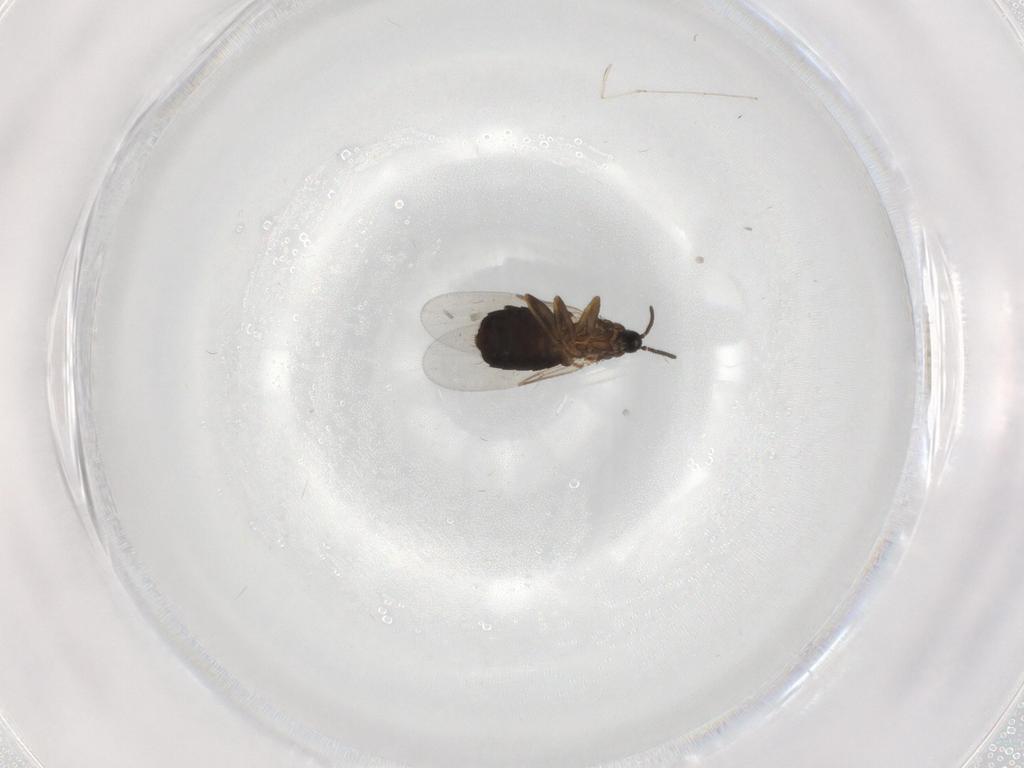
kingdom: Animalia
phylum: Arthropoda
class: Insecta
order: Diptera
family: Scatopsidae
